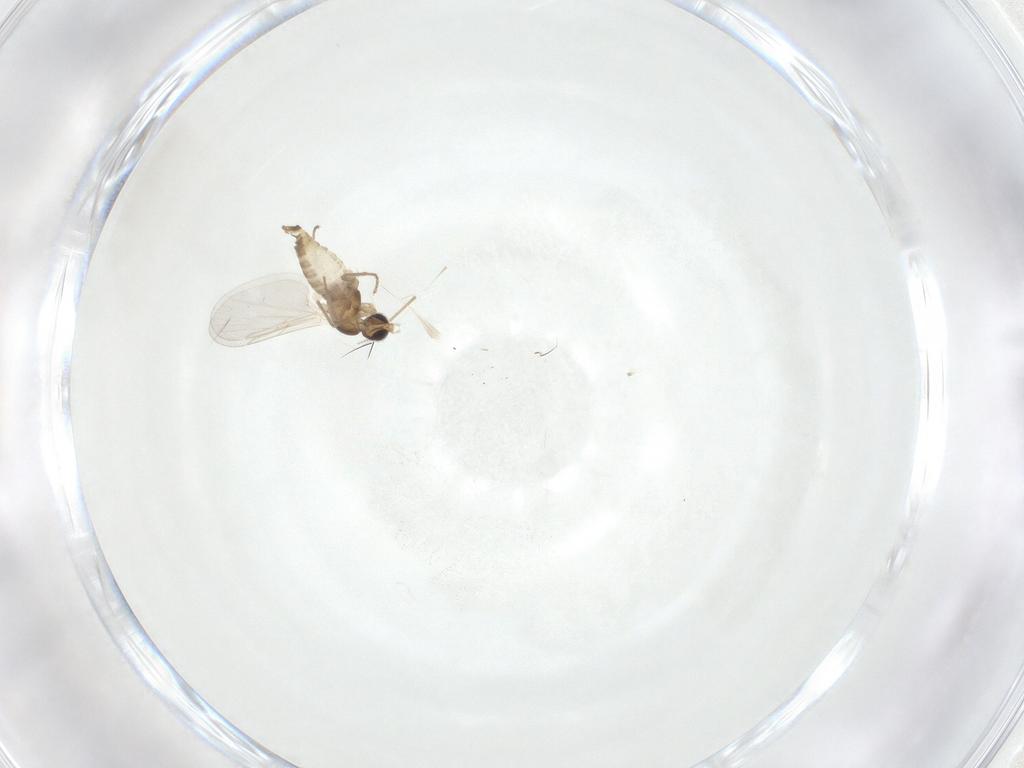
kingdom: Animalia
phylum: Arthropoda
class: Insecta
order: Diptera
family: Cecidomyiidae
